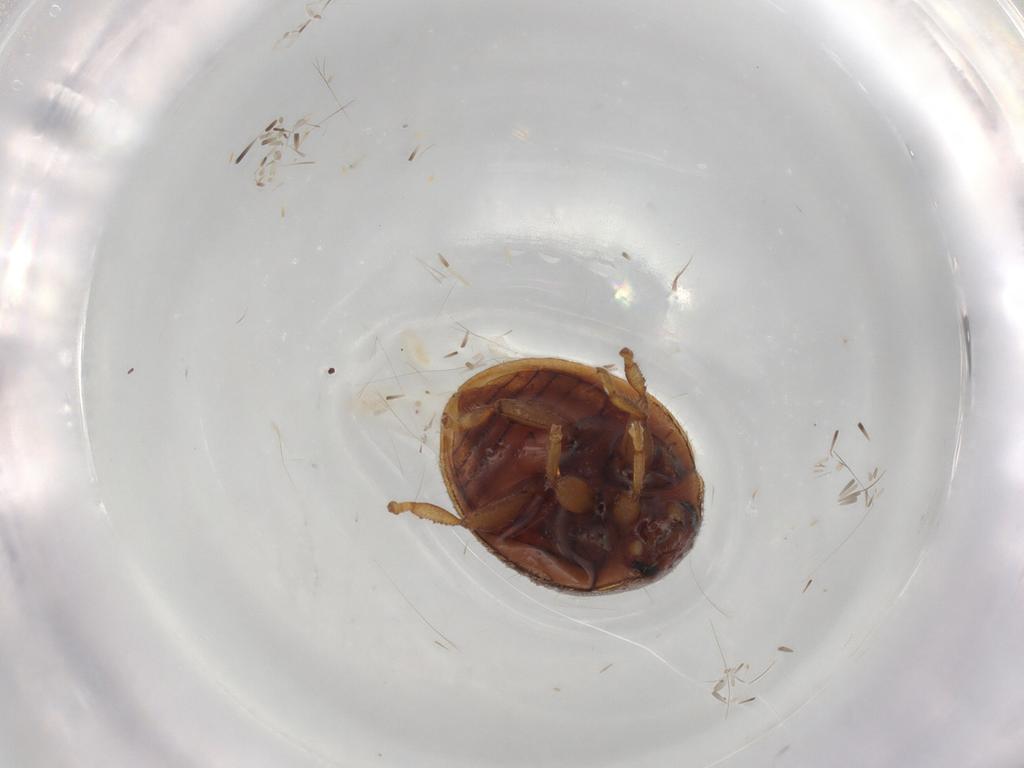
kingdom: Animalia
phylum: Arthropoda
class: Insecta
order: Coleoptera
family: Coccinellidae
